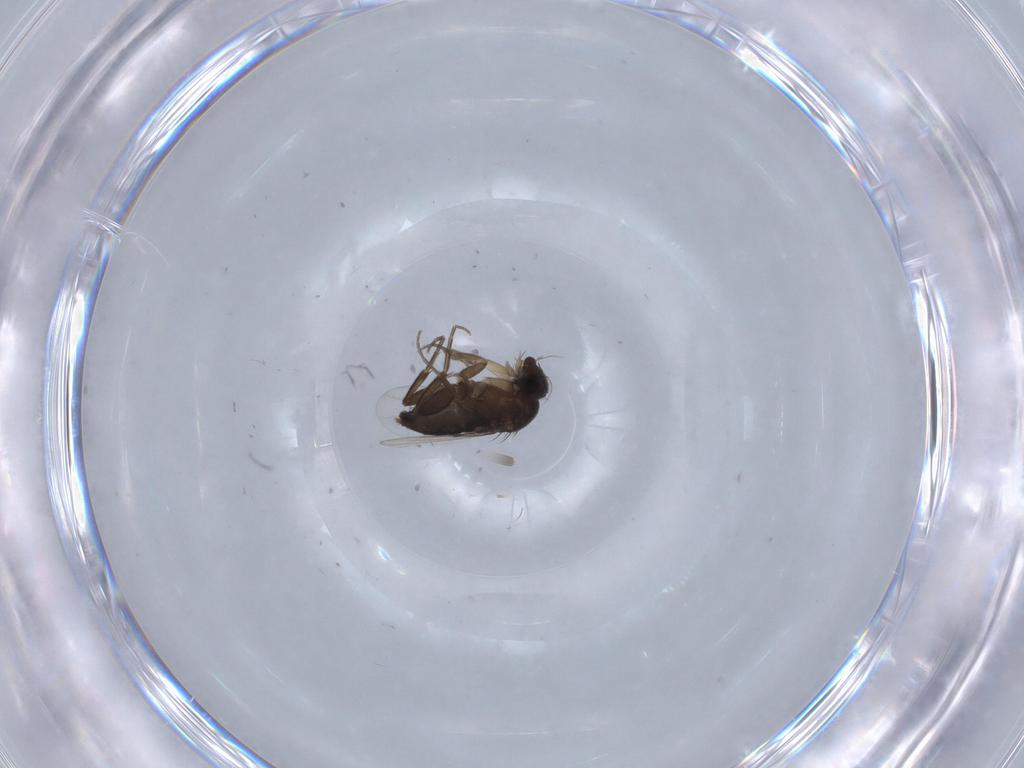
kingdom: Animalia
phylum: Arthropoda
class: Insecta
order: Diptera
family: Phoridae
